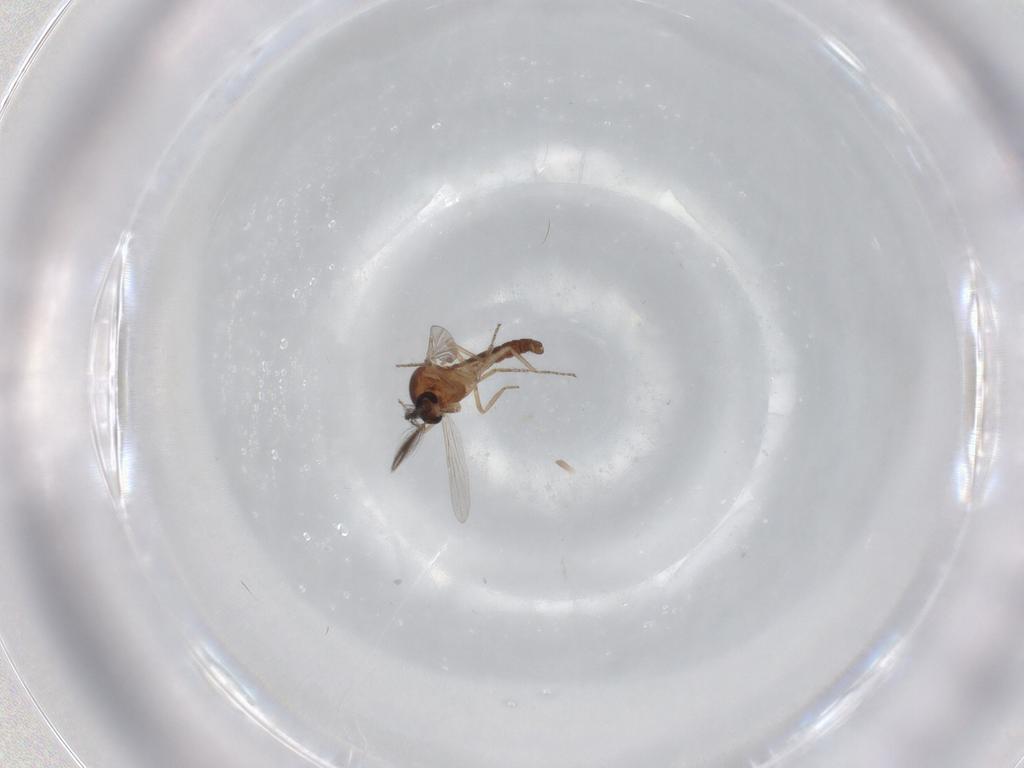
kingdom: Animalia
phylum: Arthropoda
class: Insecta
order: Diptera
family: Ceratopogonidae
